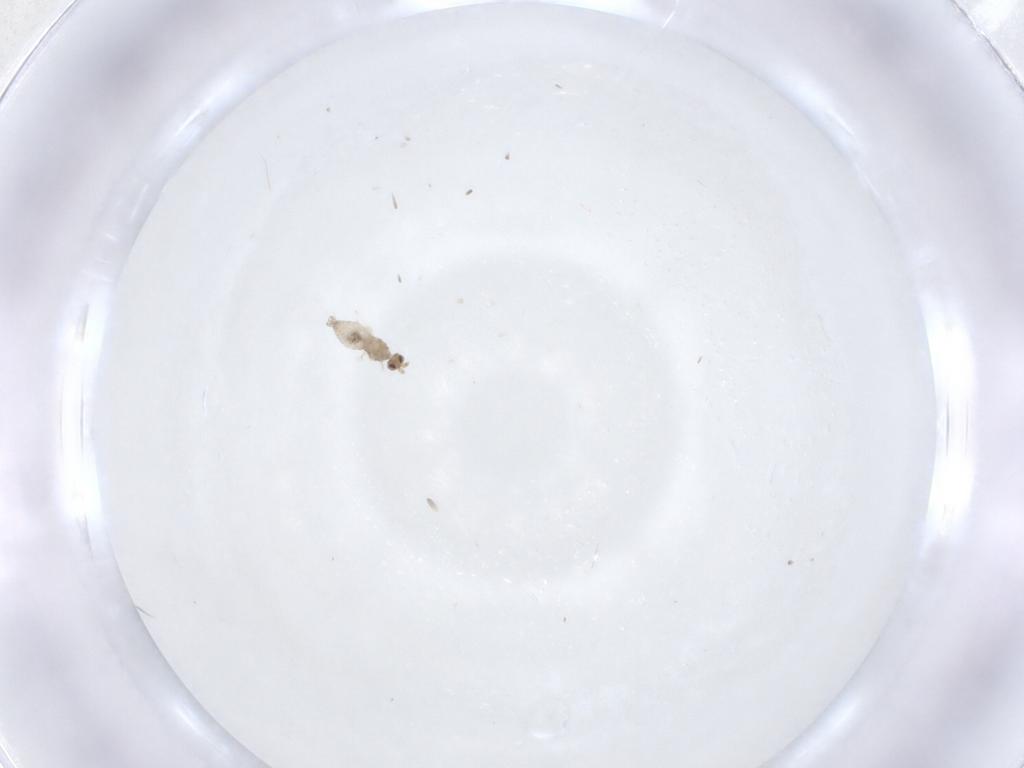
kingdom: Animalia
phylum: Arthropoda
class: Insecta
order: Diptera
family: Cecidomyiidae
